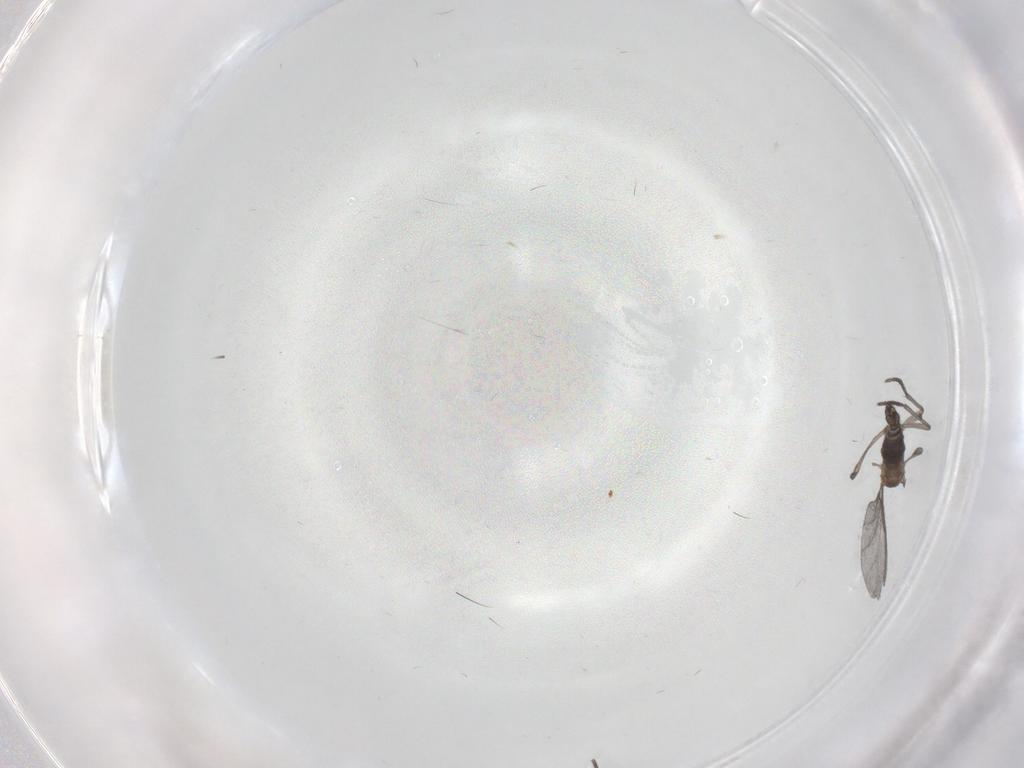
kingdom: Animalia
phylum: Arthropoda
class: Insecta
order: Diptera
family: Sciaridae
